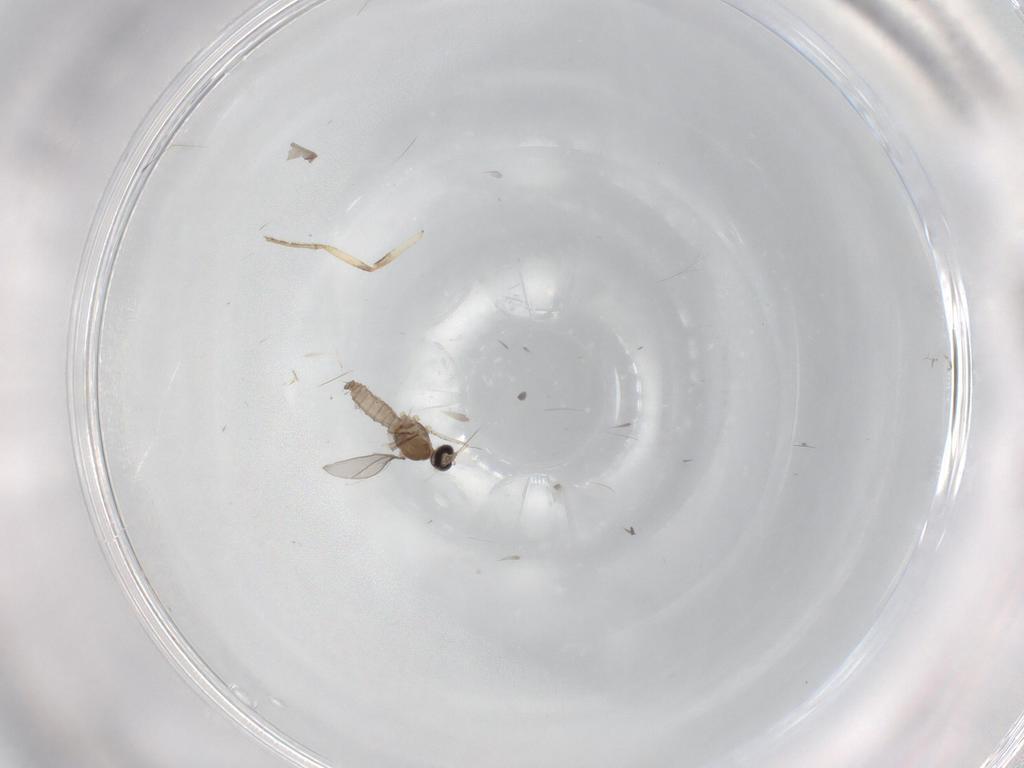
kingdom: Animalia
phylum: Arthropoda
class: Insecta
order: Diptera
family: Ceratopogonidae
